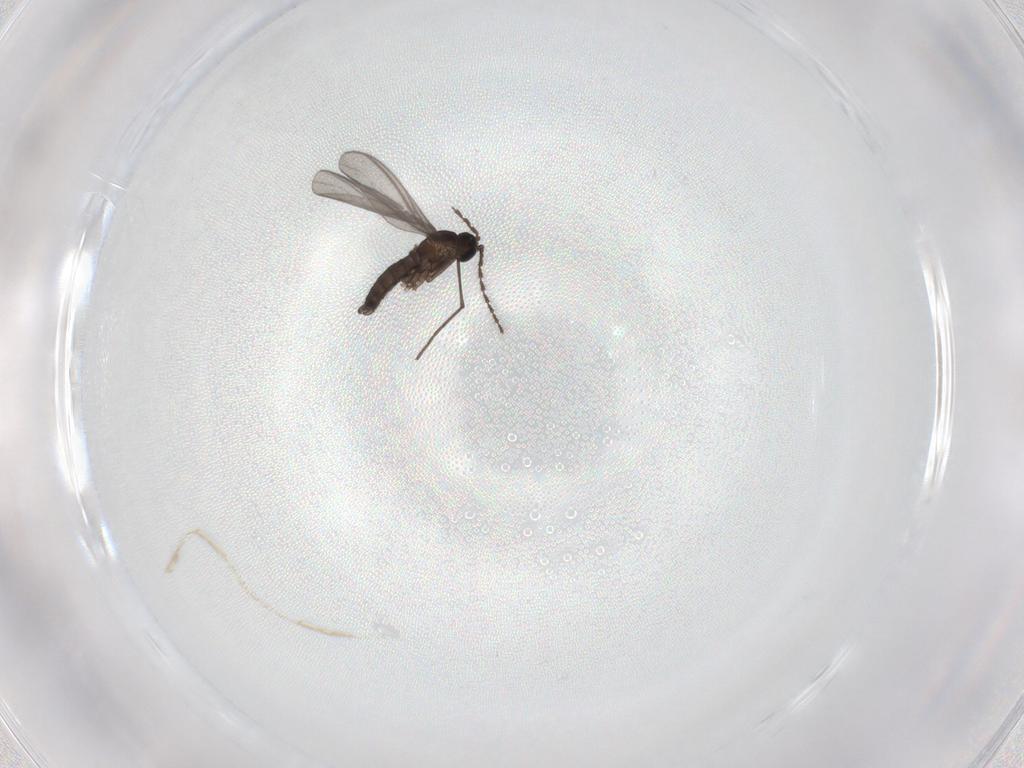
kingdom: Animalia
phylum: Arthropoda
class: Insecta
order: Diptera
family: Sciaridae
